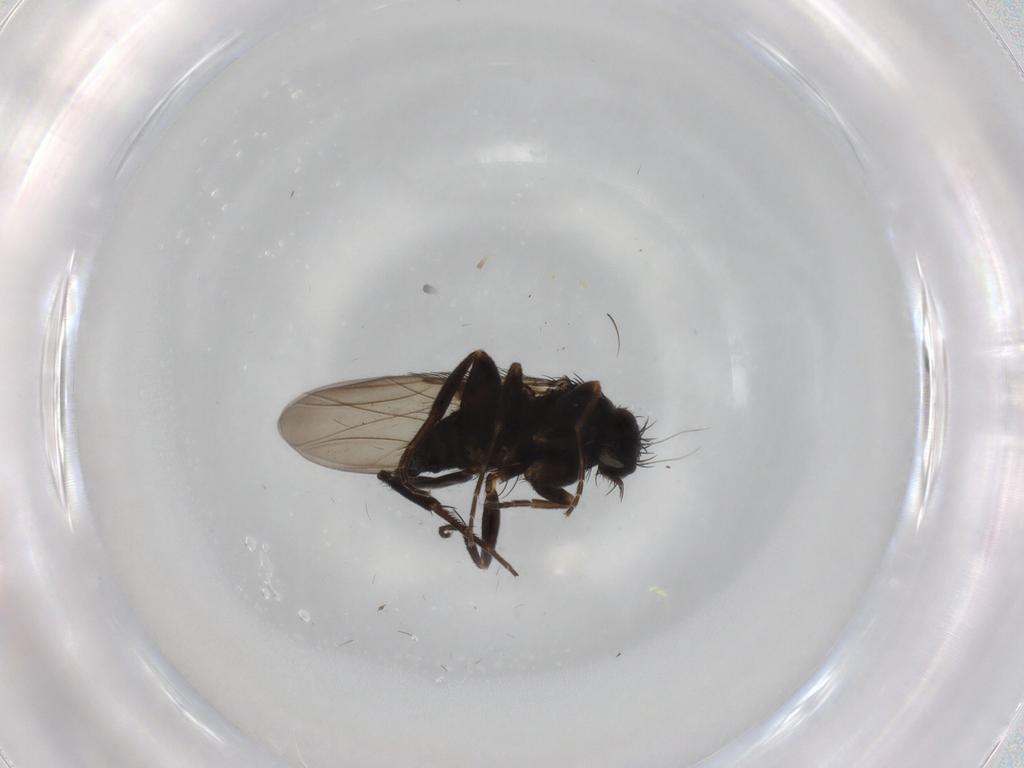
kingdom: Animalia
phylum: Arthropoda
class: Insecta
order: Diptera
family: Phoridae
